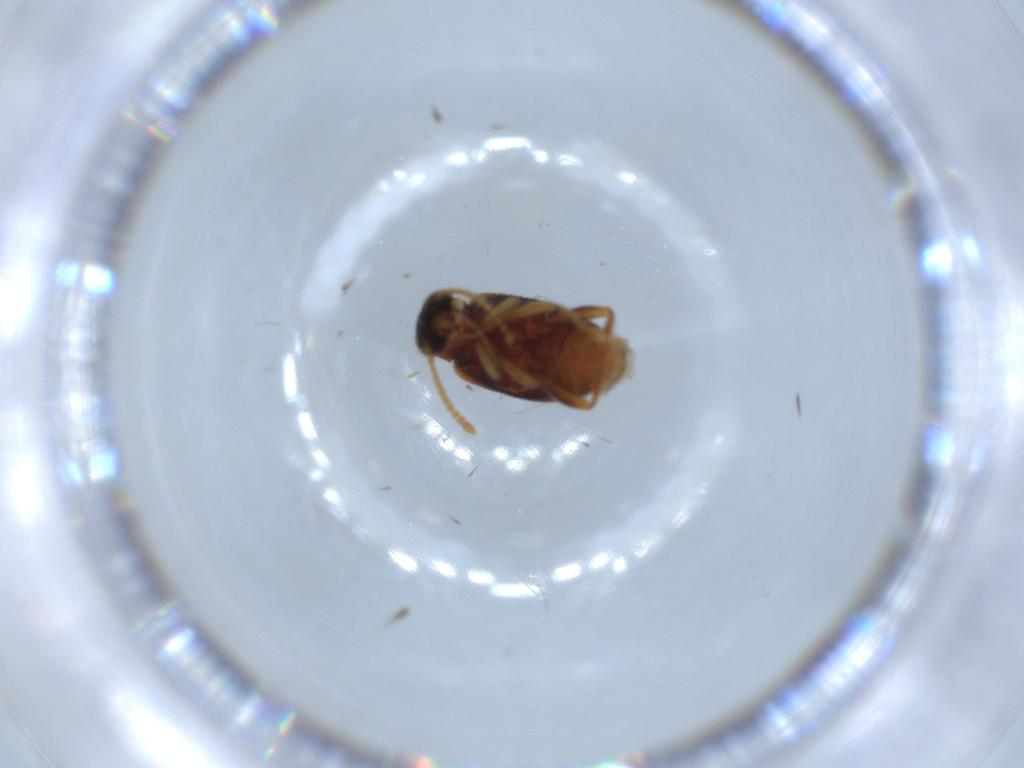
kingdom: Animalia
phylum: Arthropoda
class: Insecta
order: Coleoptera
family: Aderidae
